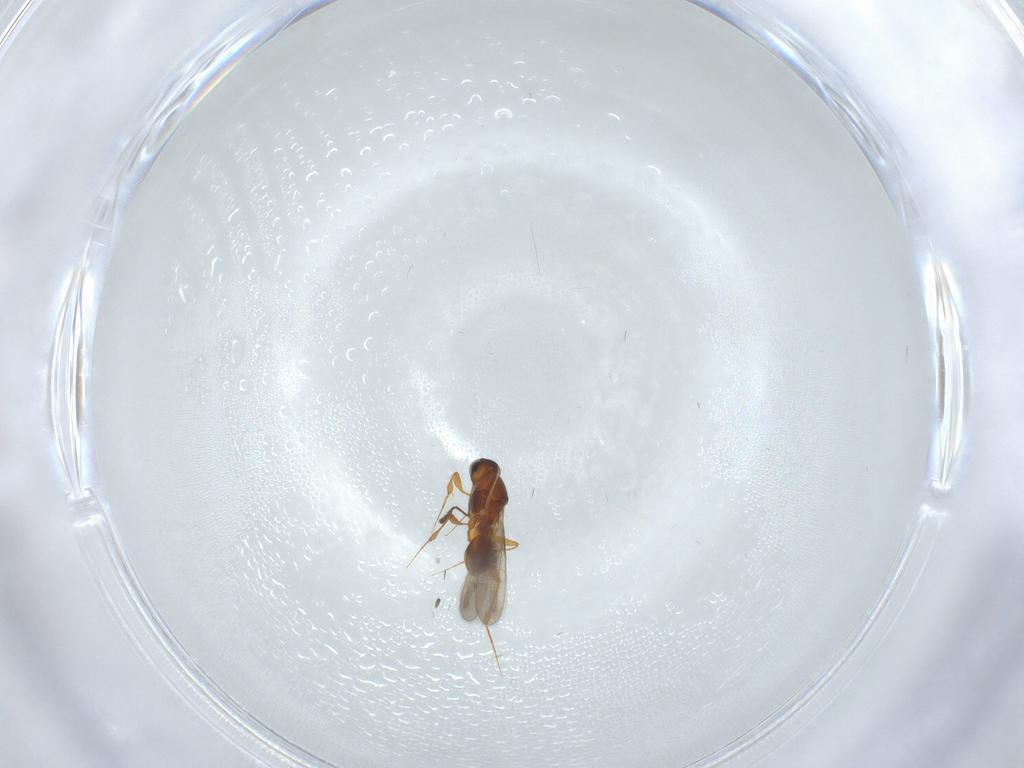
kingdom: Animalia
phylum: Arthropoda
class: Insecta
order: Hymenoptera
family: Platygastridae
